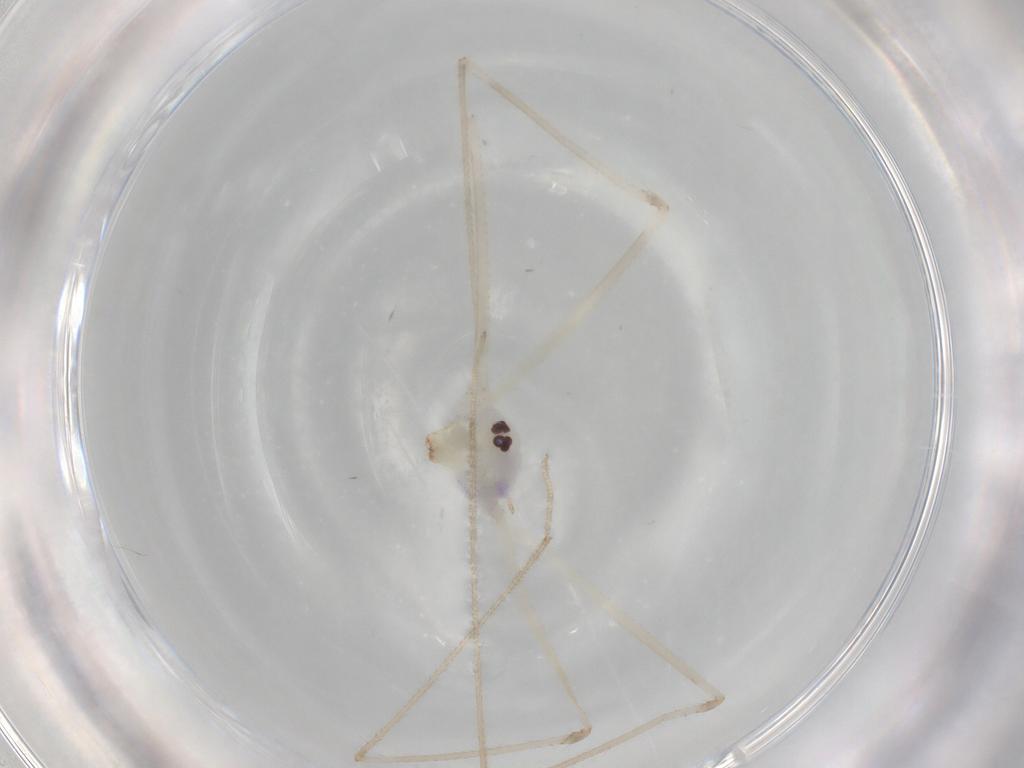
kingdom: Animalia
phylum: Arthropoda
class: Arachnida
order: Araneae
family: Pholcidae
